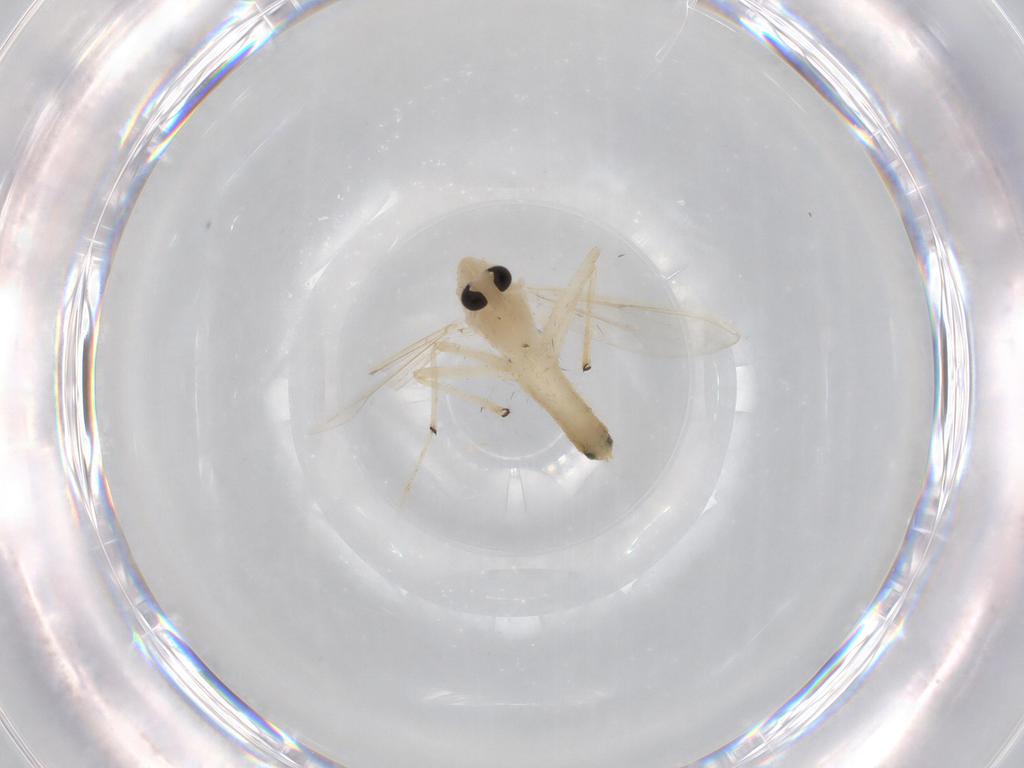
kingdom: Animalia
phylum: Arthropoda
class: Insecta
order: Diptera
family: Chironomidae
